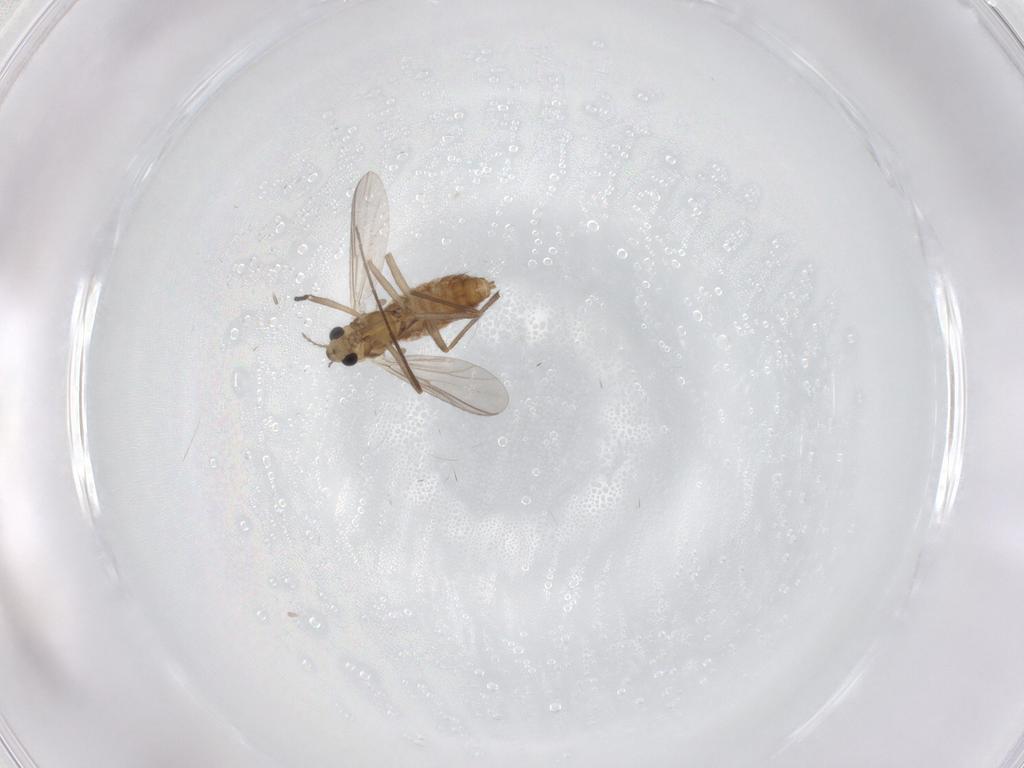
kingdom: Animalia
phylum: Arthropoda
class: Insecta
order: Diptera
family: Chironomidae
